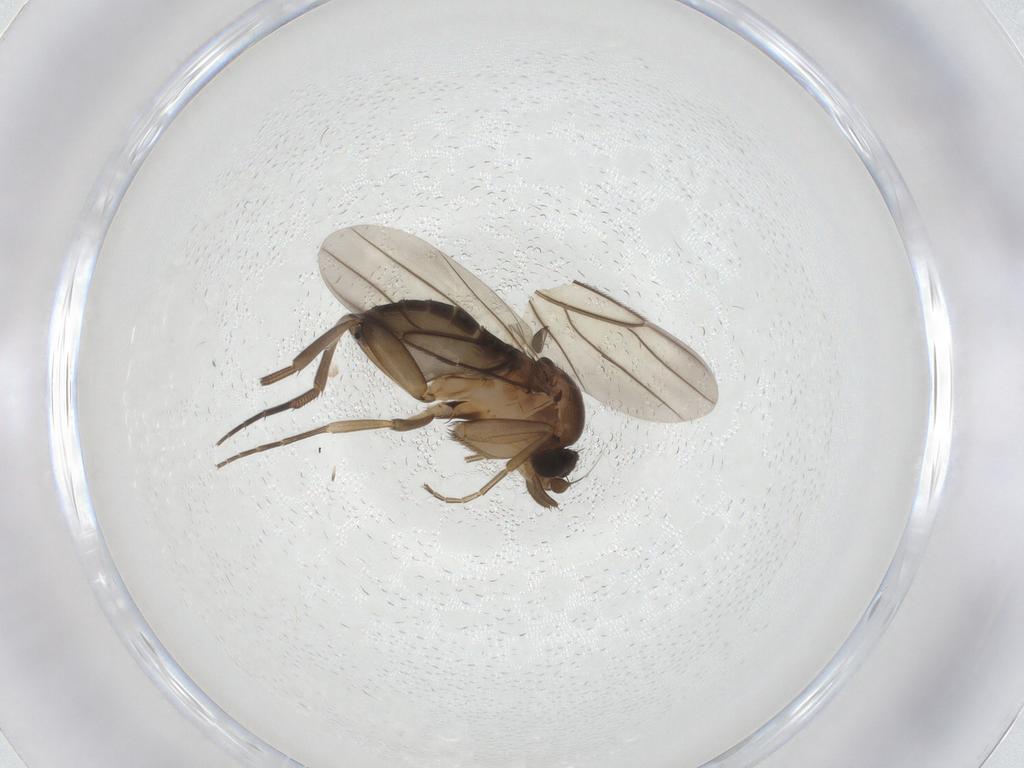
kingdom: Animalia
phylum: Arthropoda
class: Insecta
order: Diptera
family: Phoridae
